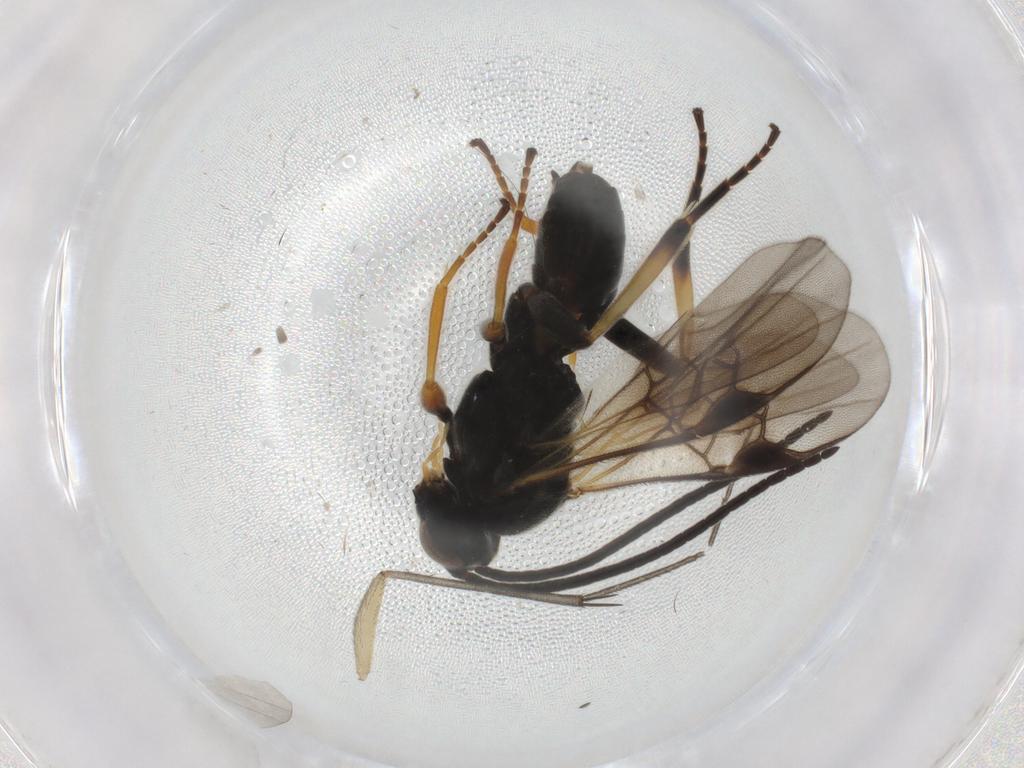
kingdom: Animalia
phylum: Arthropoda
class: Insecta
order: Hymenoptera
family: Braconidae
